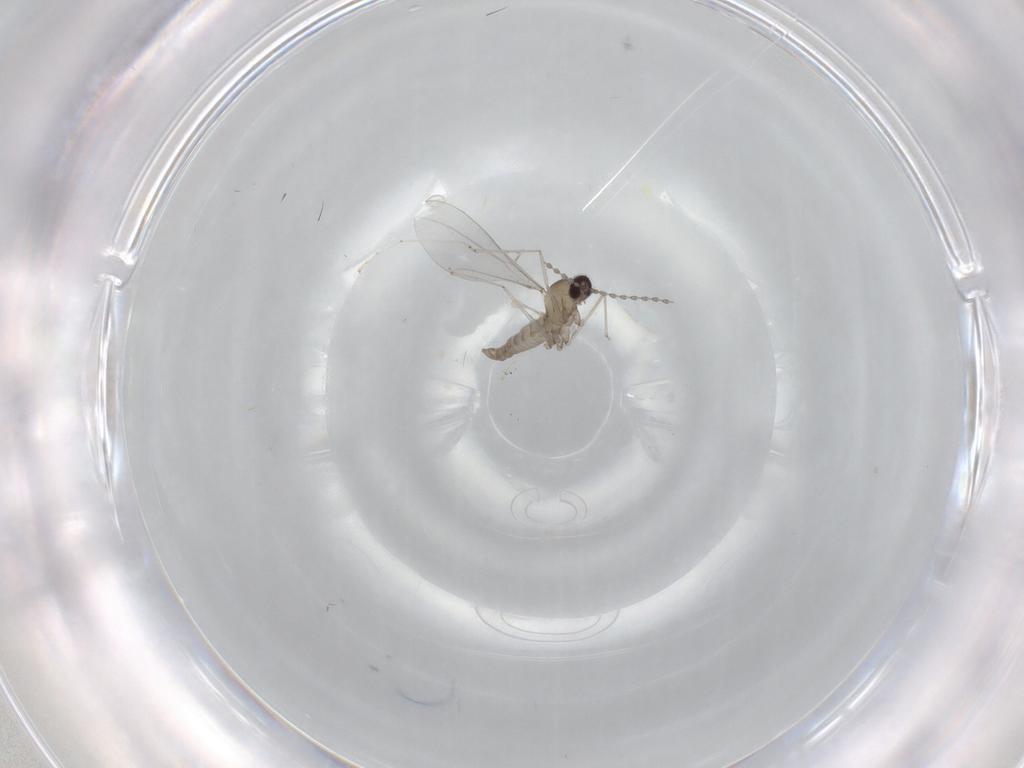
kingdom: Animalia
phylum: Arthropoda
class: Insecta
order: Diptera
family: Cecidomyiidae
